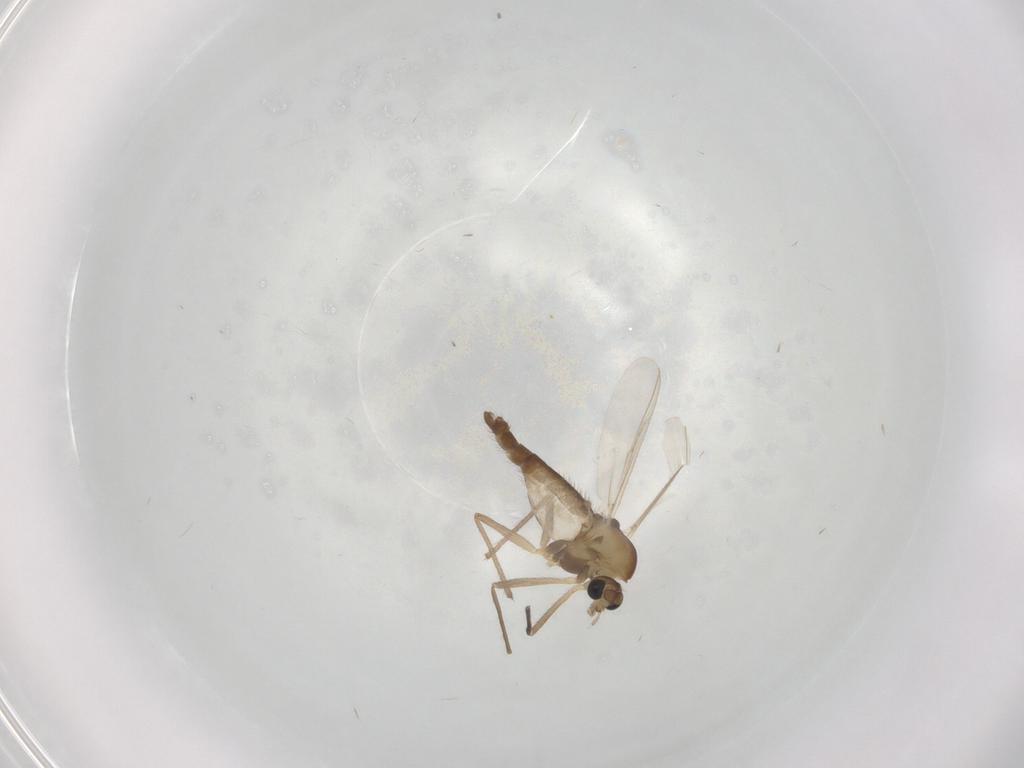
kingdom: Animalia
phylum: Arthropoda
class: Insecta
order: Diptera
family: Chironomidae
